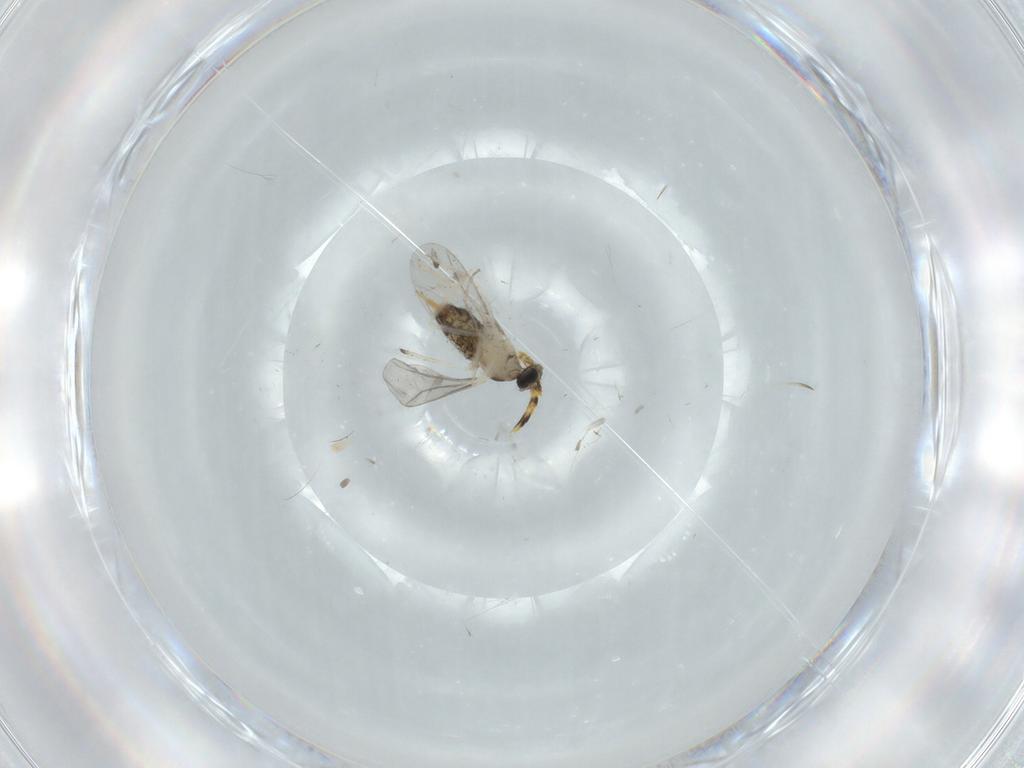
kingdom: Animalia
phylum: Arthropoda
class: Insecta
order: Diptera
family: Cecidomyiidae
